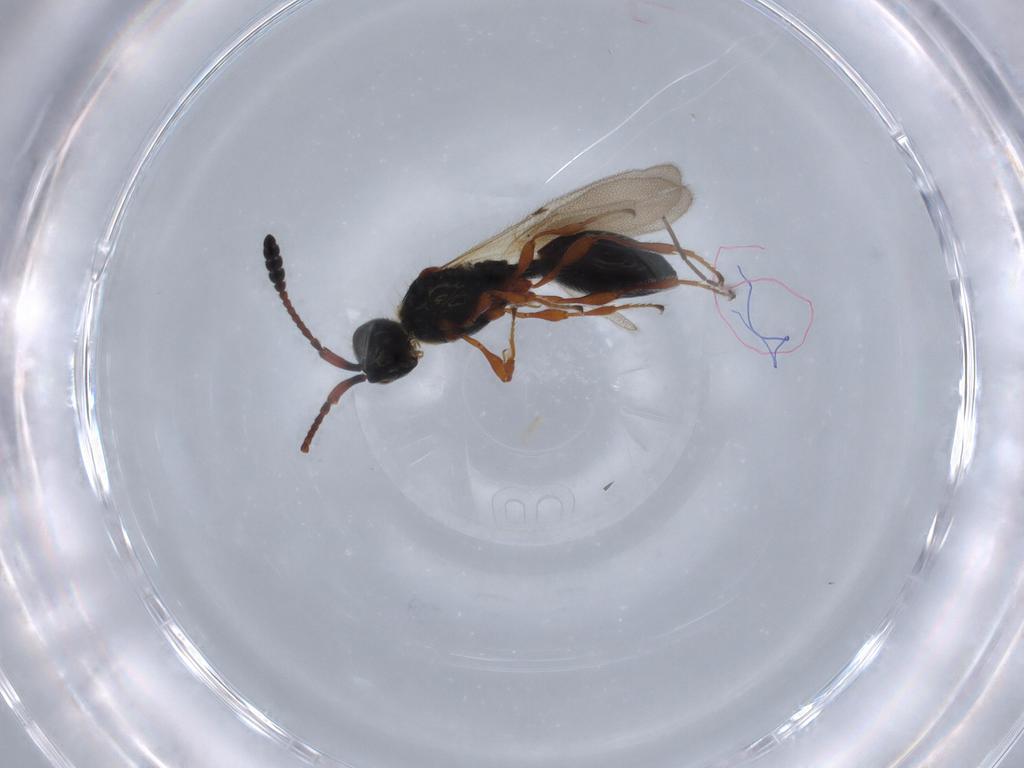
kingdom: Animalia
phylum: Arthropoda
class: Insecta
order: Hymenoptera
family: Diapriidae
